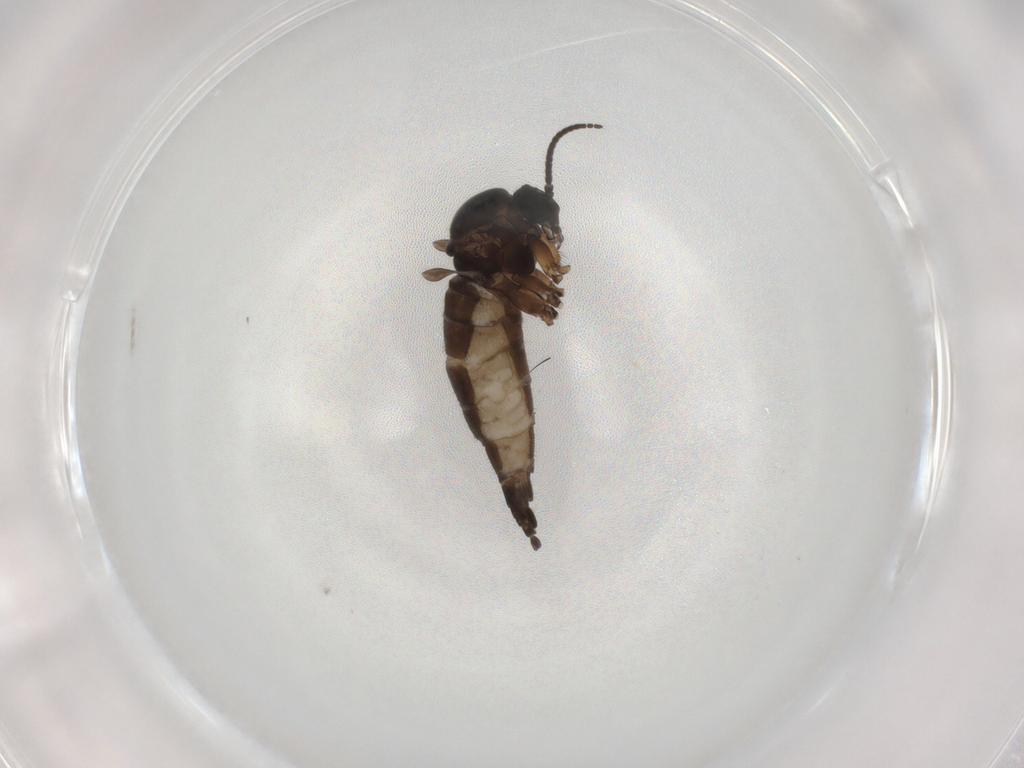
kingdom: Animalia
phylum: Arthropoda
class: Insecta
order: Diptera
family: Sciaridae
